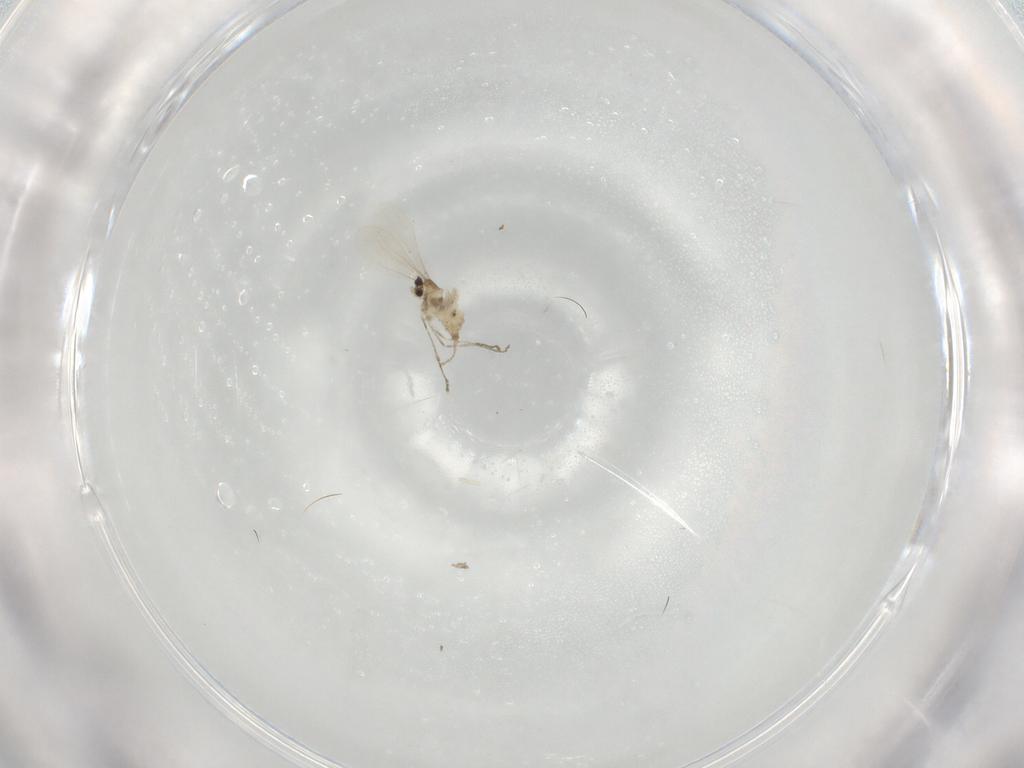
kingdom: Animalia
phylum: Arthropoda
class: Insecta
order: Diptera
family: Cecidomyiidae
